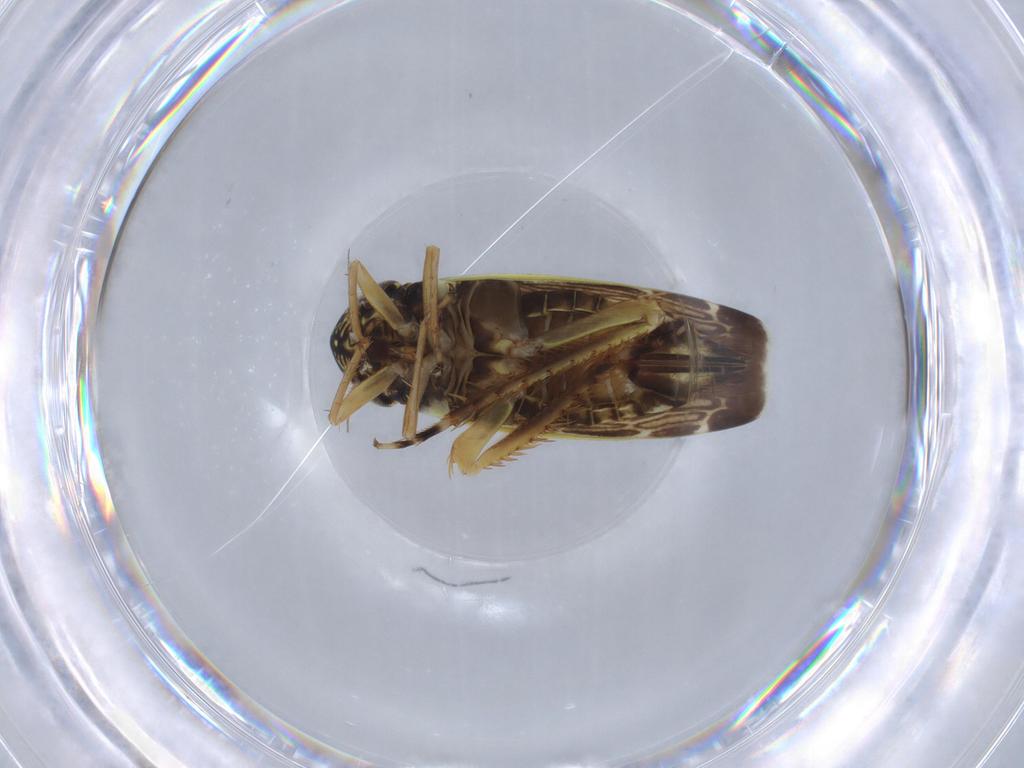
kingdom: Animalia
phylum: Arthropoda
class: Insecta
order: Hemiptera
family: Cicadellidae
